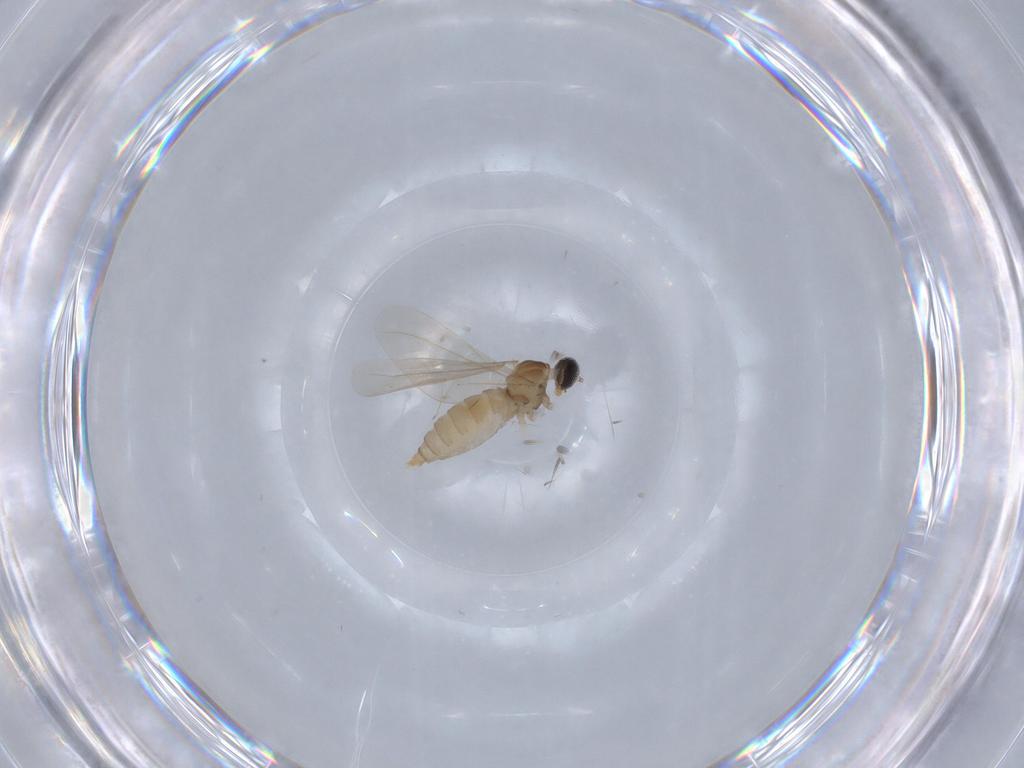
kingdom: Animalia
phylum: Arthropoda
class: Insecta
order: Diptera
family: Cecidomyiidae
